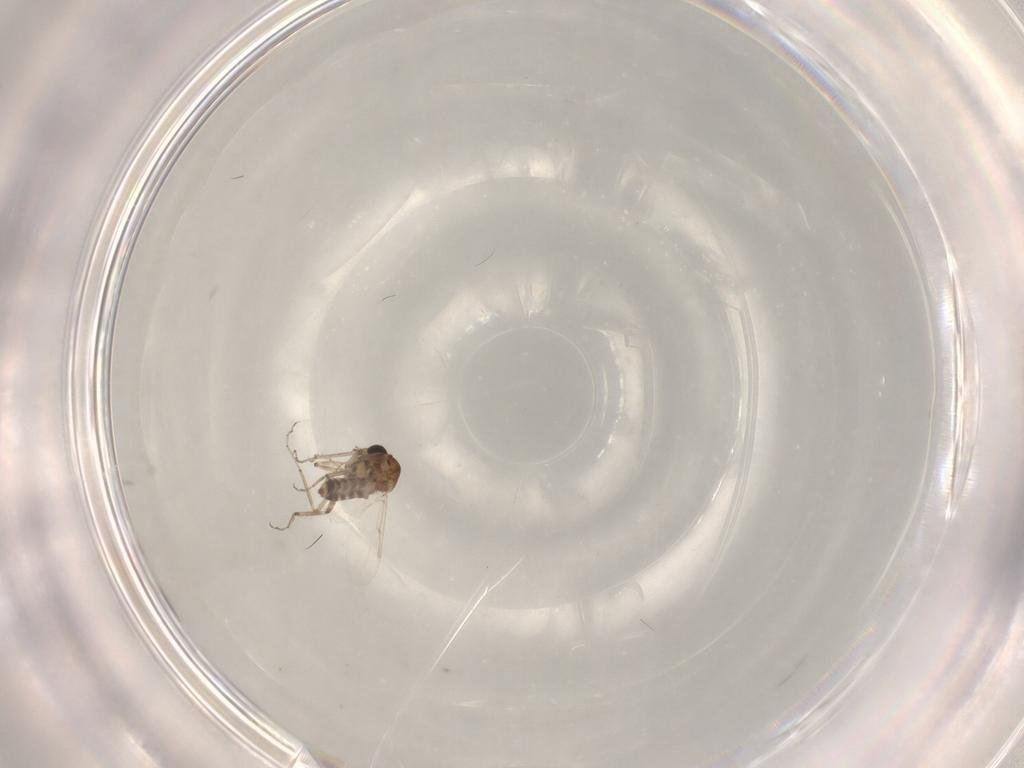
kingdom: Animalia
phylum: Arthropoda
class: Insecta
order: Diptera
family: Ceratopogonidae
